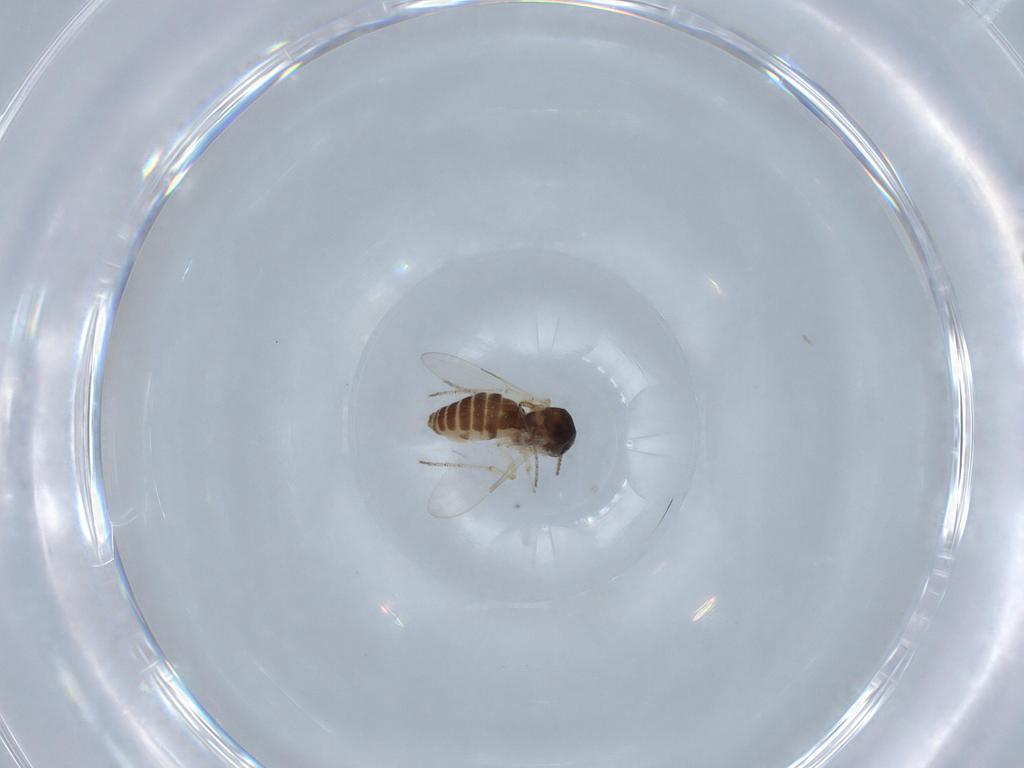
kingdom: Animalia
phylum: Arthropoda
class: Insecta
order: Diptera
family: Ceratopogonidae
